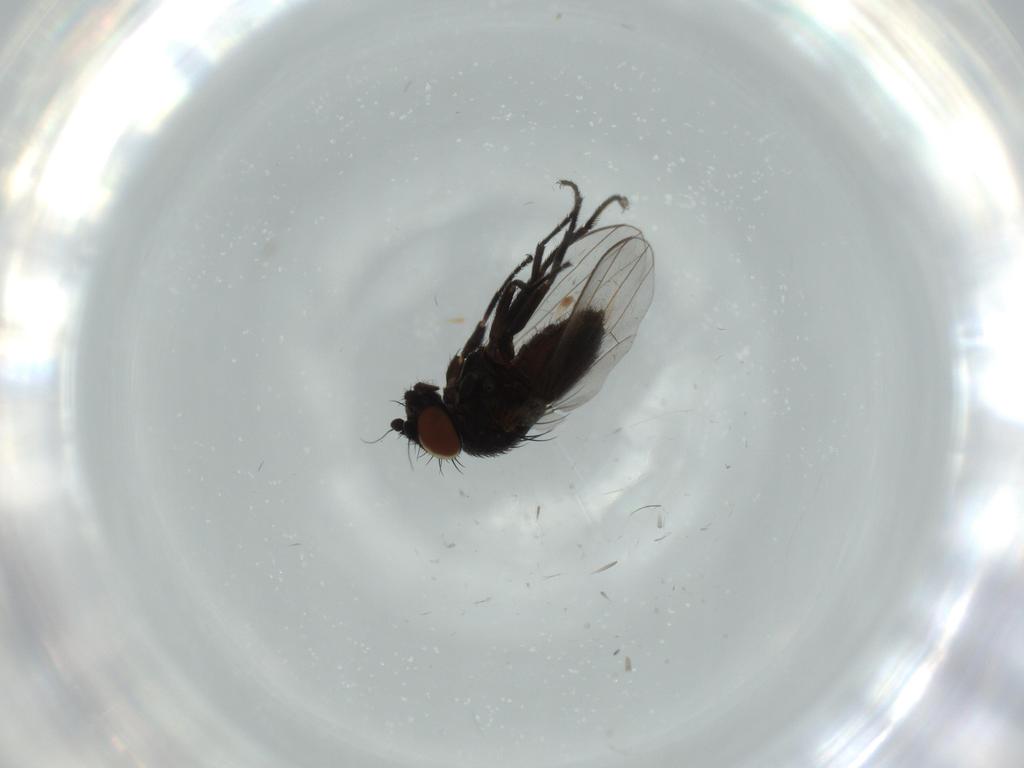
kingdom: Animalia
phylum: Arthropoda
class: Insecta
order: Diptera
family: Milichiidae
